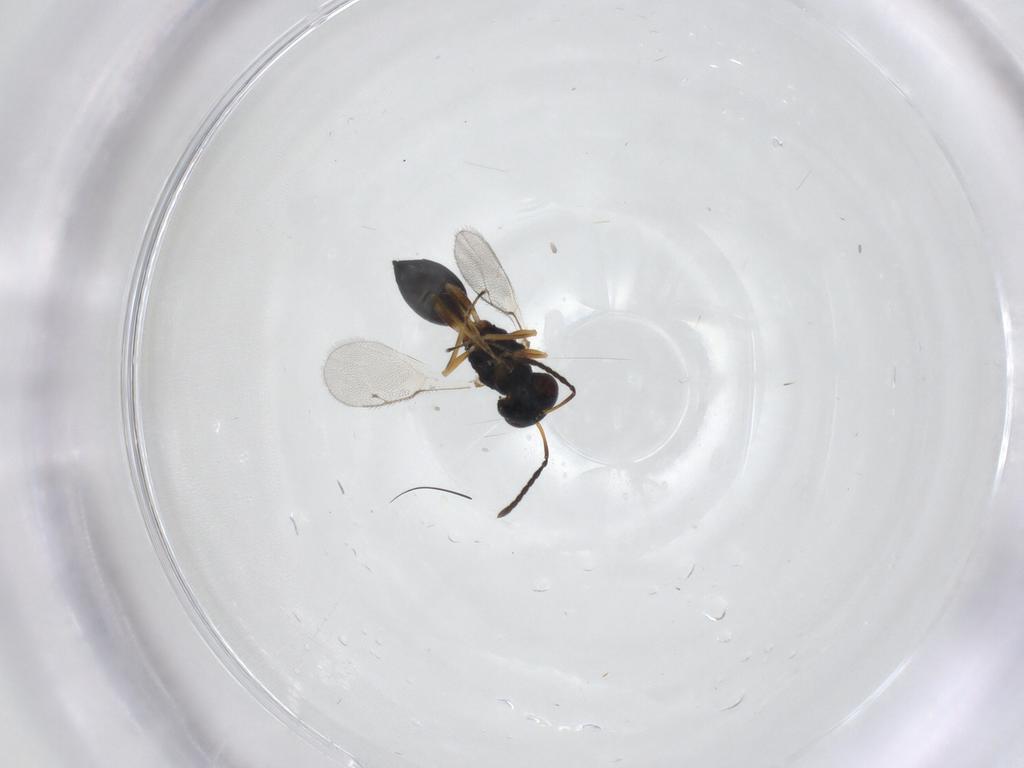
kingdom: Animalia
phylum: Arthropoda
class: Insecta
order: Hymenoptera
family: Pteromalidae
